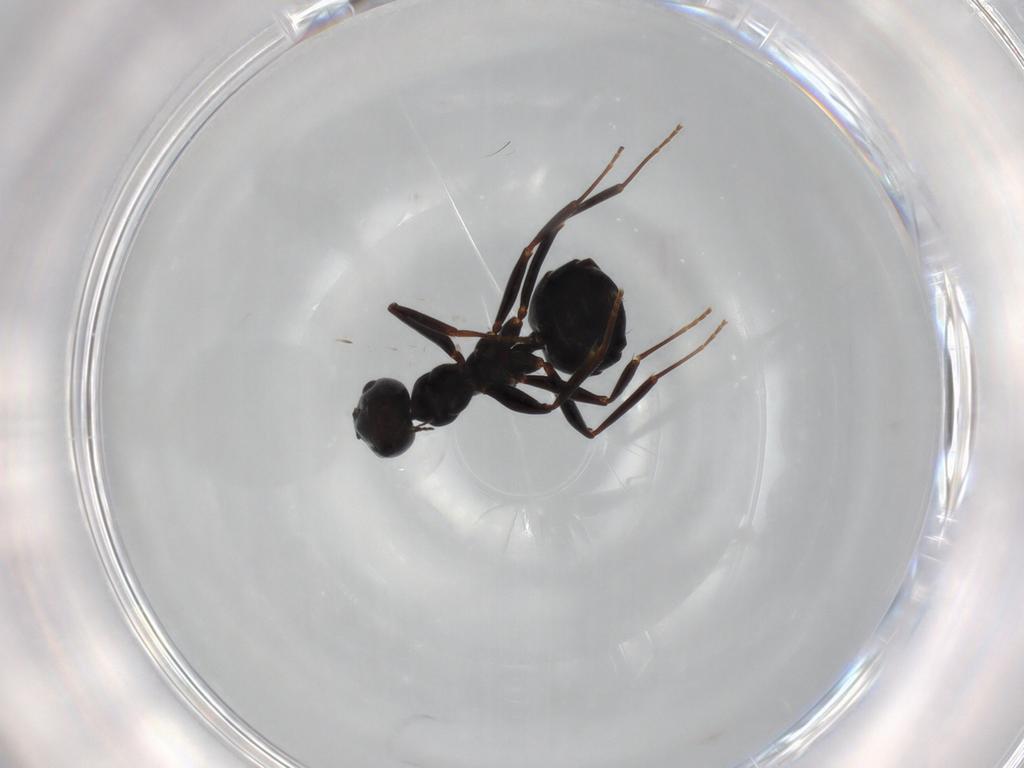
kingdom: Animalia
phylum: Arthropoda
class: Insecta
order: Hymenoptera
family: Formicidae
